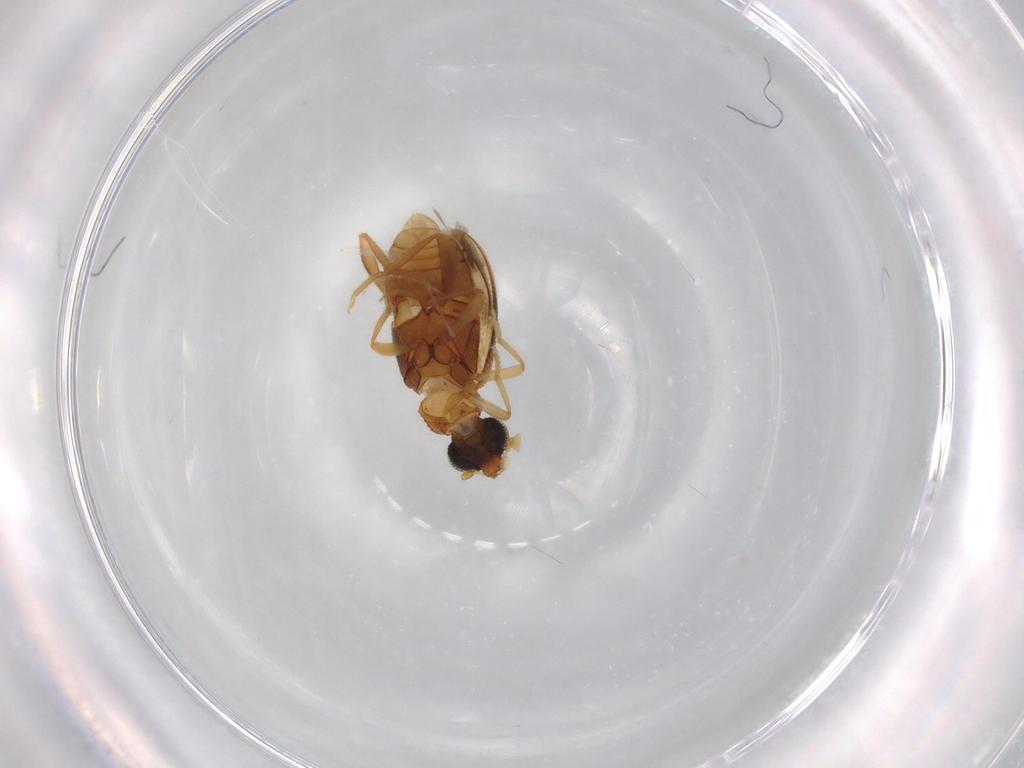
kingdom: Animalia
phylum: Arthropoda
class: Insecta
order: Coleoptera
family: Aderidae
